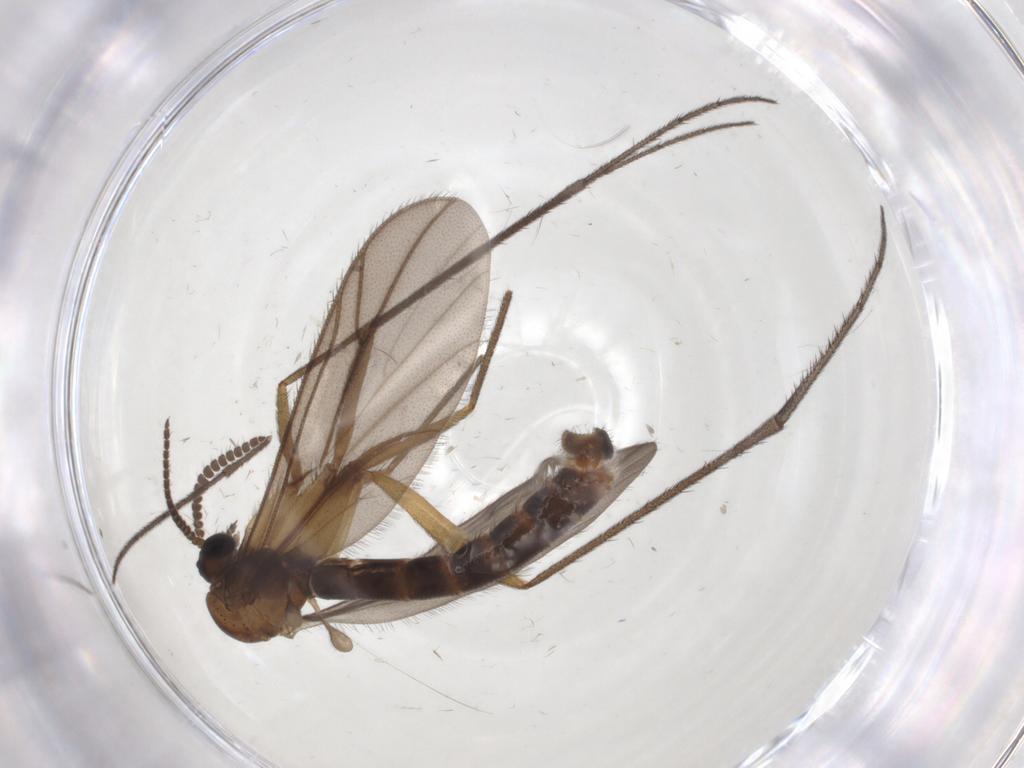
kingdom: Animalia
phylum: Arthropoda
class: Insecta
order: Diptera
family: Ditomyiidae
